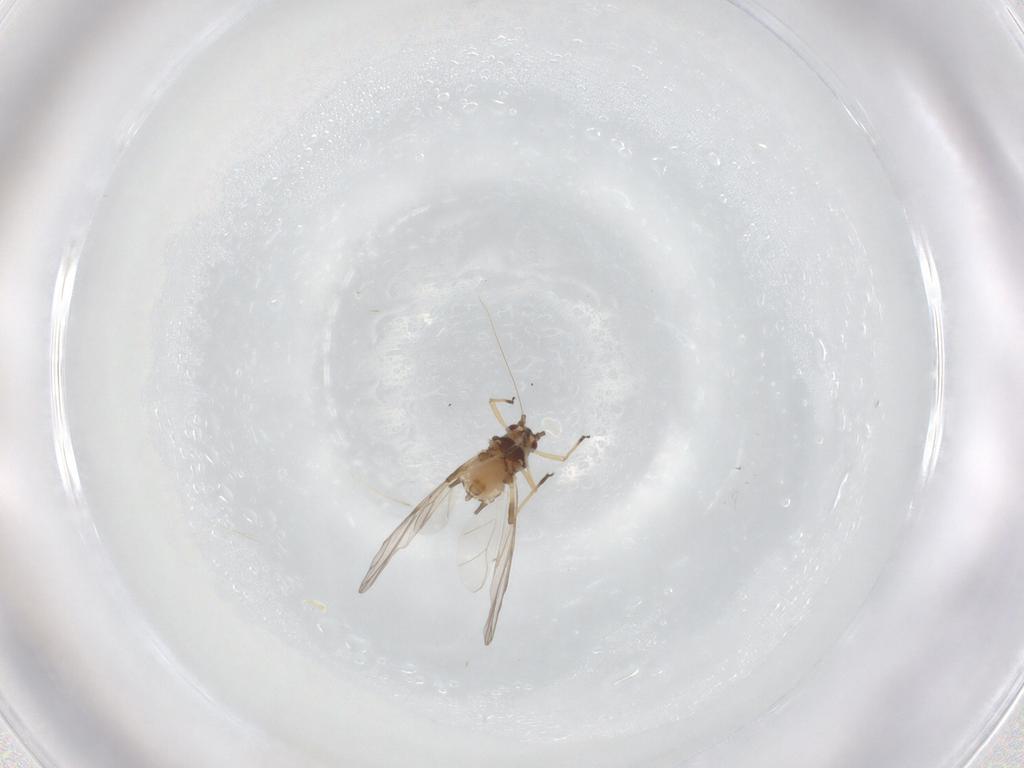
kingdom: Animalia
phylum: Arthropoda
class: Insecta
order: Hemiptera
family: Aphididae
